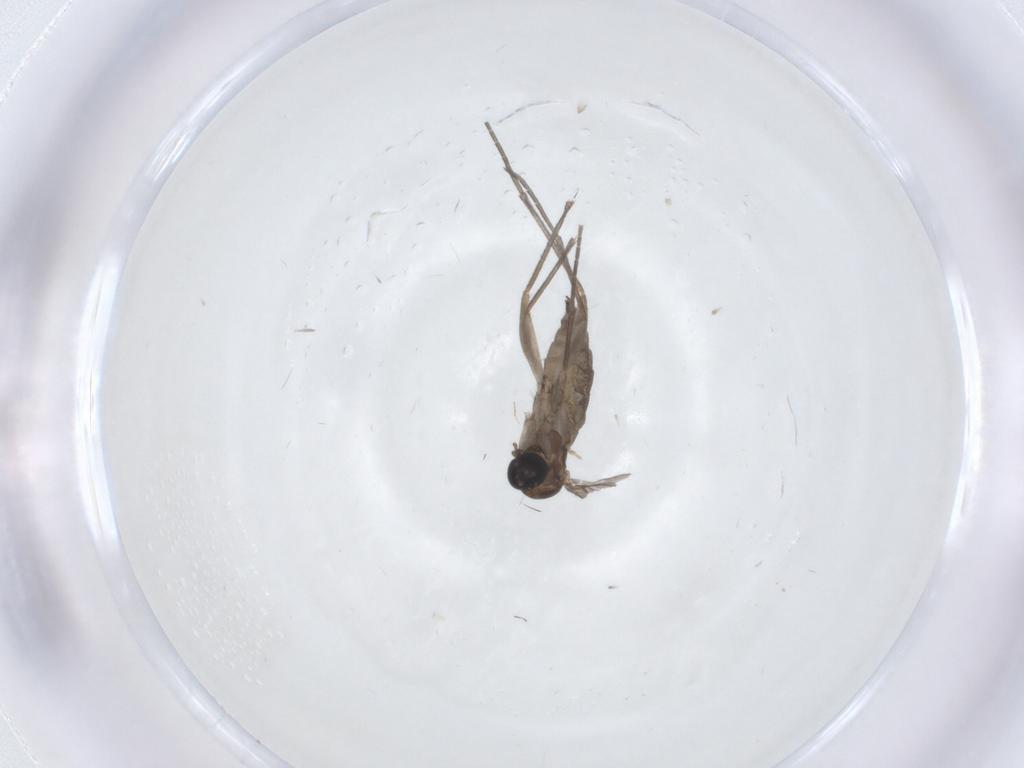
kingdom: Animalia
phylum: Arthropoda
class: Insecta
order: Diptera
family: Sciaridae
